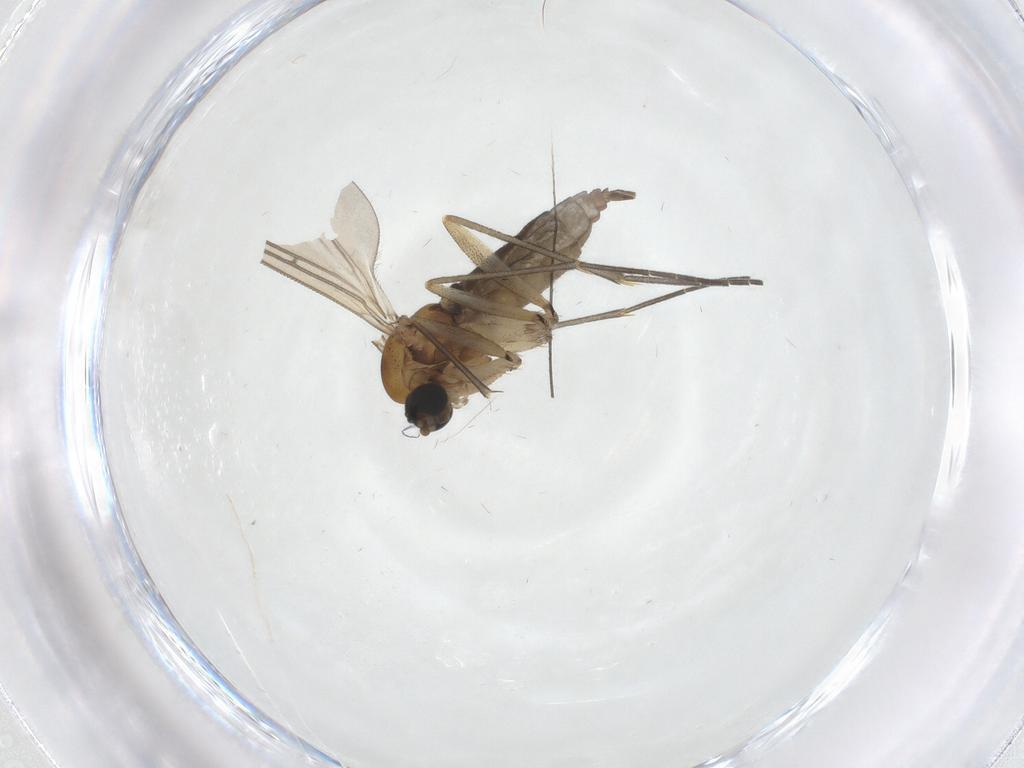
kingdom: Animalia
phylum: Arthropoda
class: Insecta
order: Diptera
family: Sciaridae
